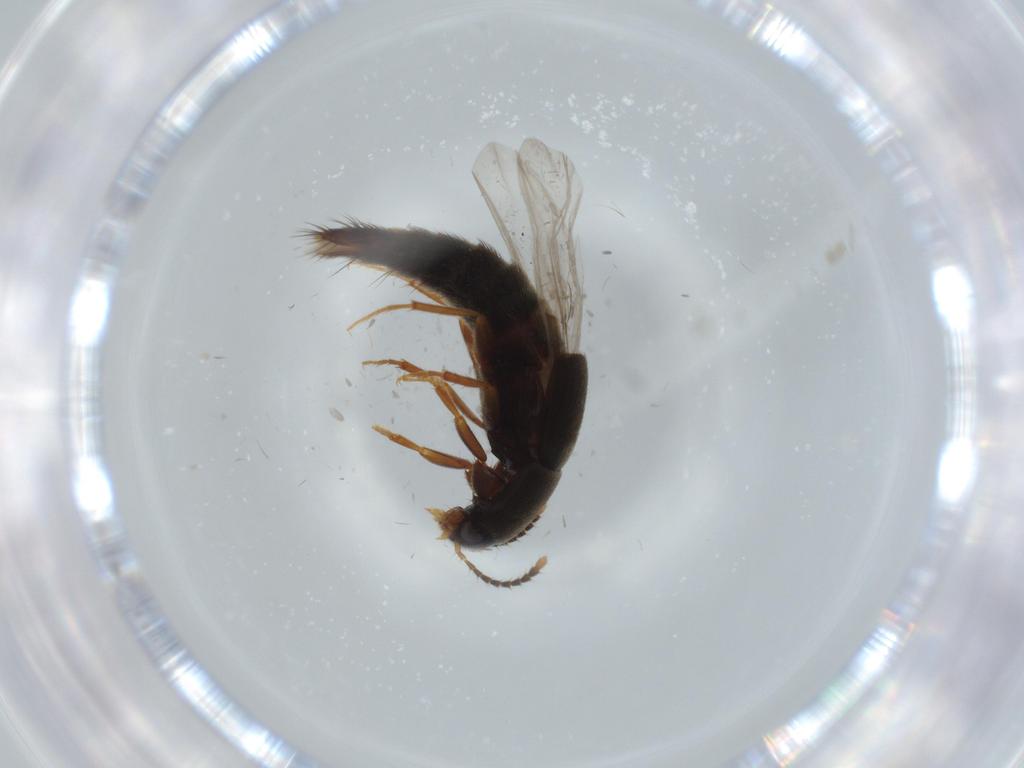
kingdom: Animalia
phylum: Arthropoda
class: Insecta
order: Coleoptera
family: Staphylinidae
